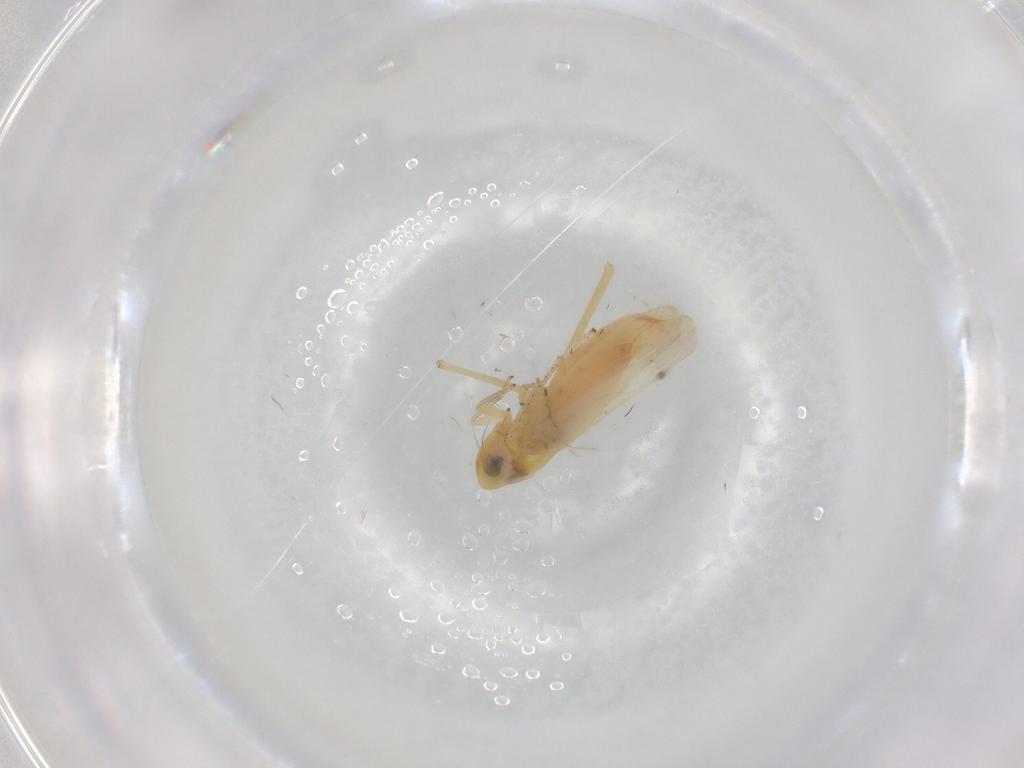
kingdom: Animalia
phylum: Arthropoda
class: Insecta
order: Hemiptera
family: Cicadellidae
